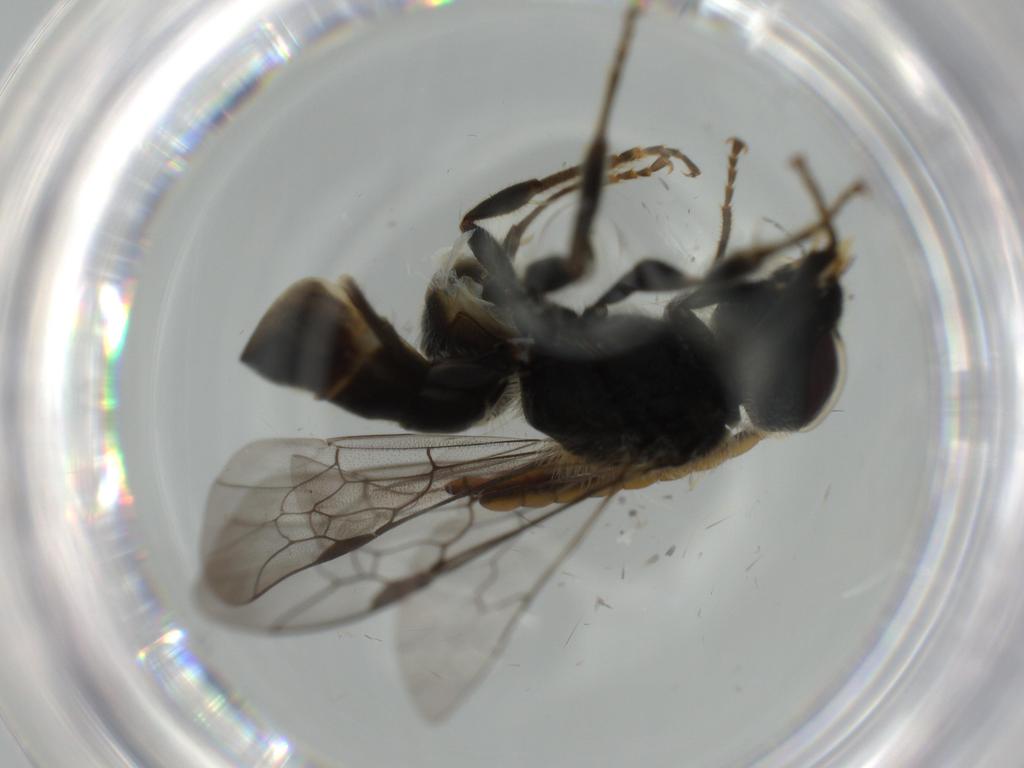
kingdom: Animalia
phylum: Arthropoda
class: Insecta
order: Hymenoptera
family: Halictidae
